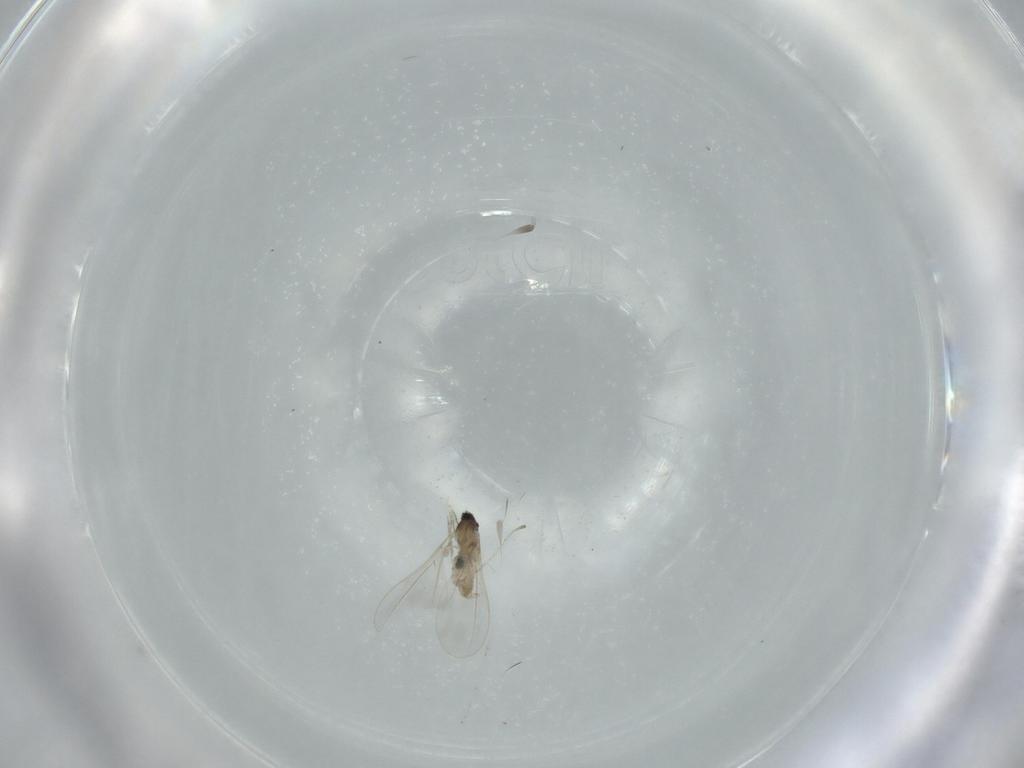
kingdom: Animalia
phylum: Arthropoda
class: Insecta
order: Diptera
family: Cecidomyiidae
